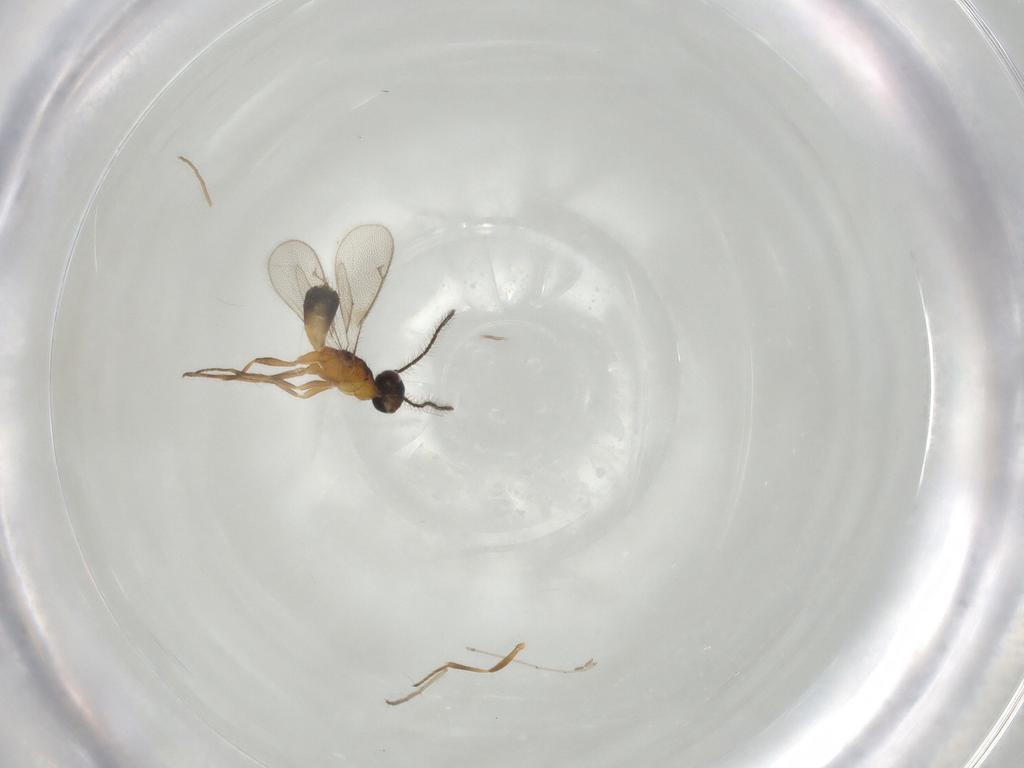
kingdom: Animalia
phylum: Arthropoda
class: Insecta
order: Hymenoptera
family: Eupelmidae
